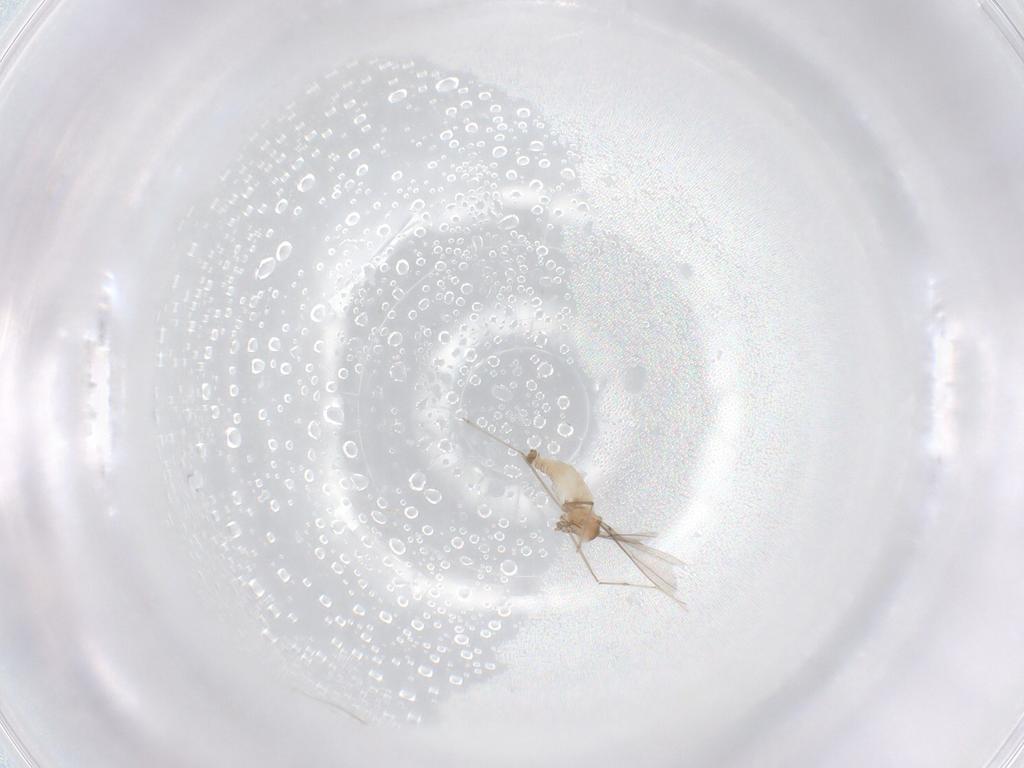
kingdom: Animalia
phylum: Arthropoda
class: Insecta
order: Diptera
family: Cecidomyiidae
